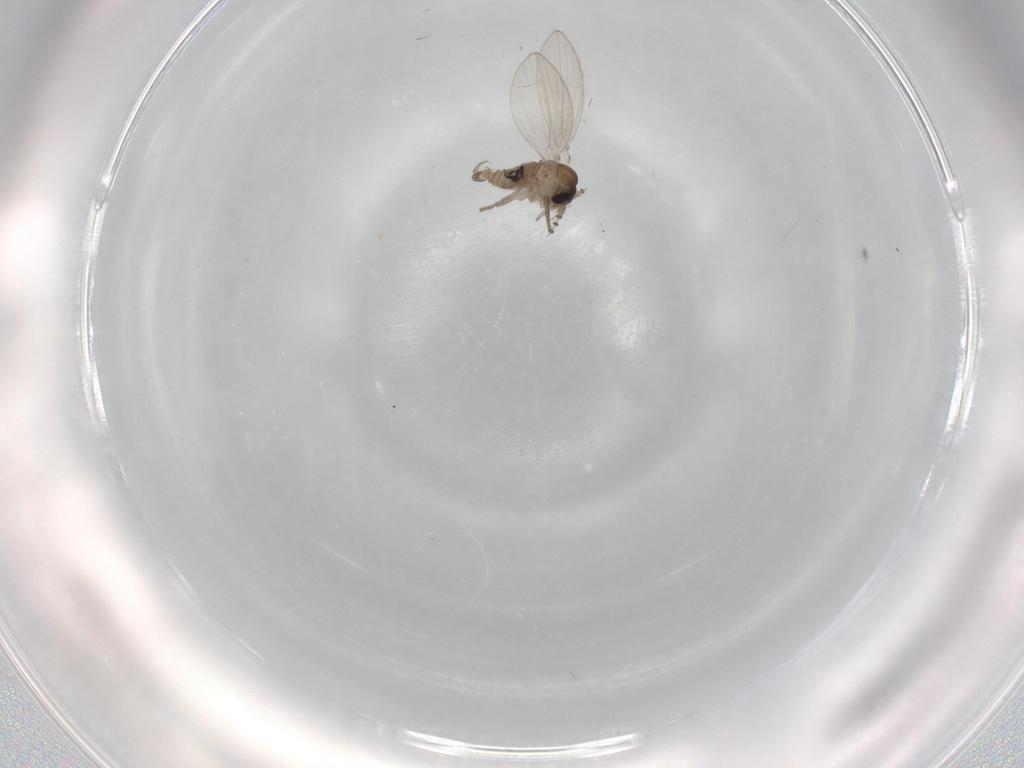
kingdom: Animalia
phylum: Arthropoda
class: Insecta
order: Diptera
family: Psychodidae
